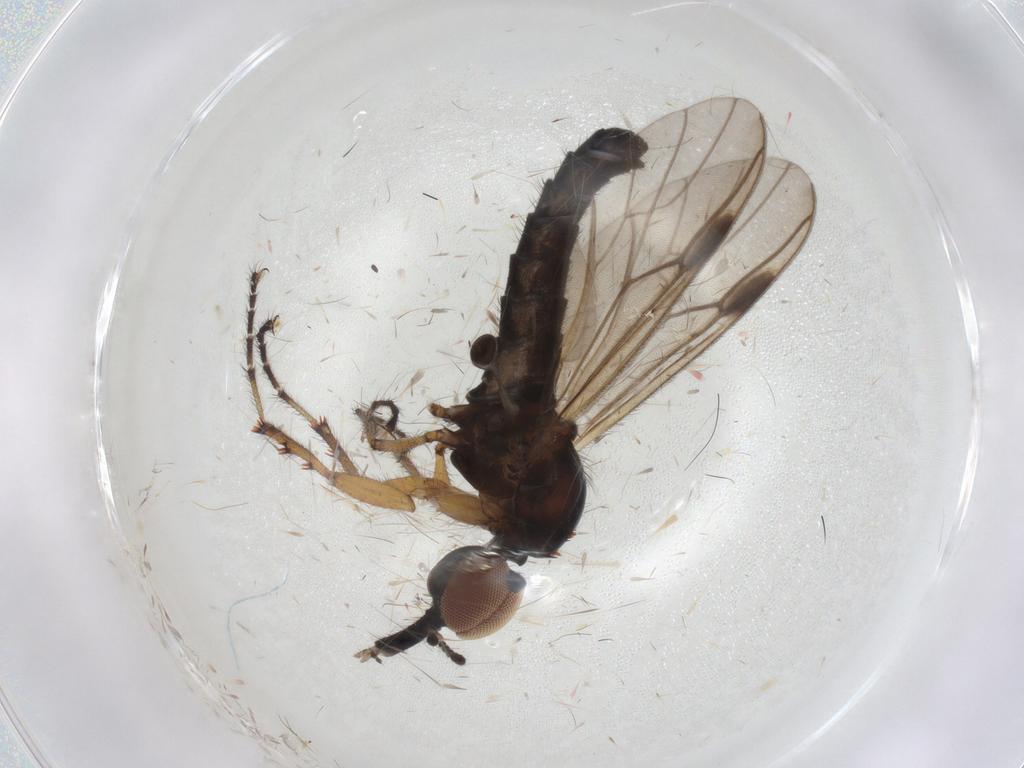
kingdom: Animalia
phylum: Arthropoda
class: Insecta
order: Diptera
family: Bibionidae
